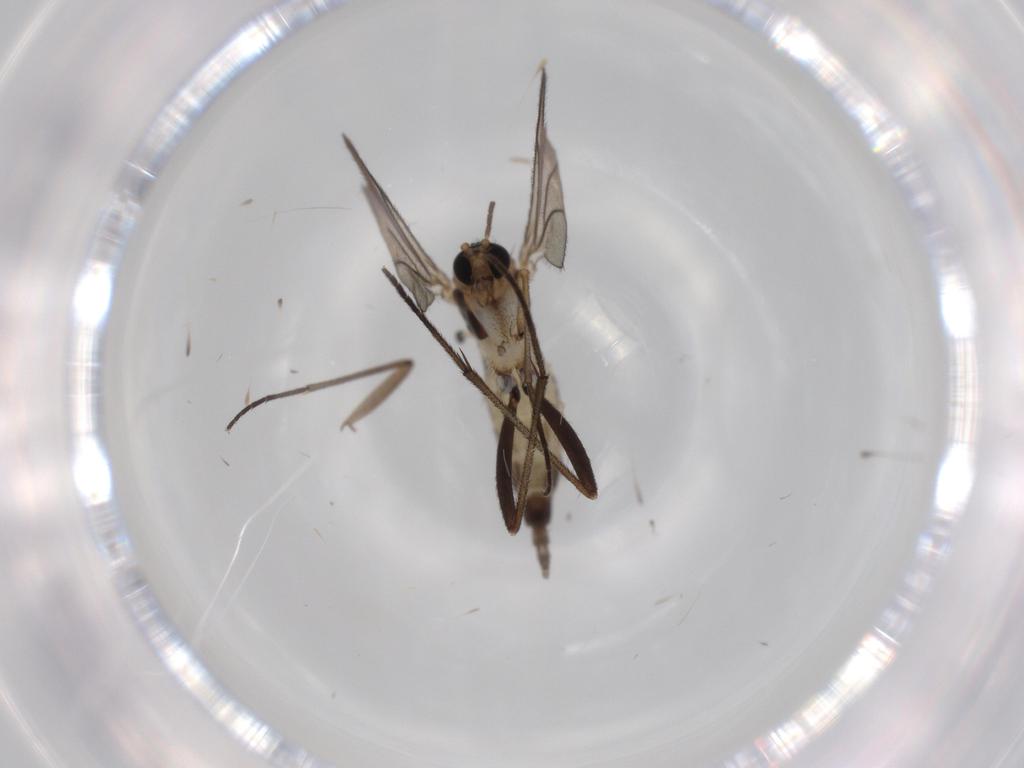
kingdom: Animalia
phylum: Arthropoda
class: Insecta
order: Diptera
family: Sciaridae
